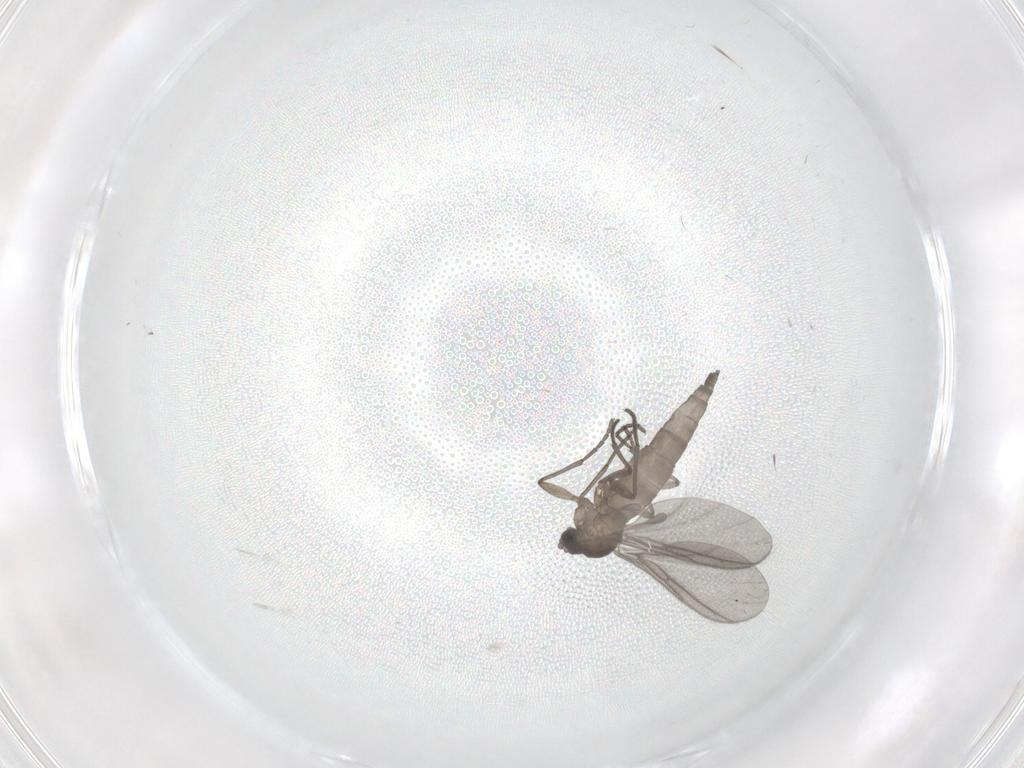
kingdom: Animalia
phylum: Arthropoda
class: Insecta
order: Diptera
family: Sciaridae
